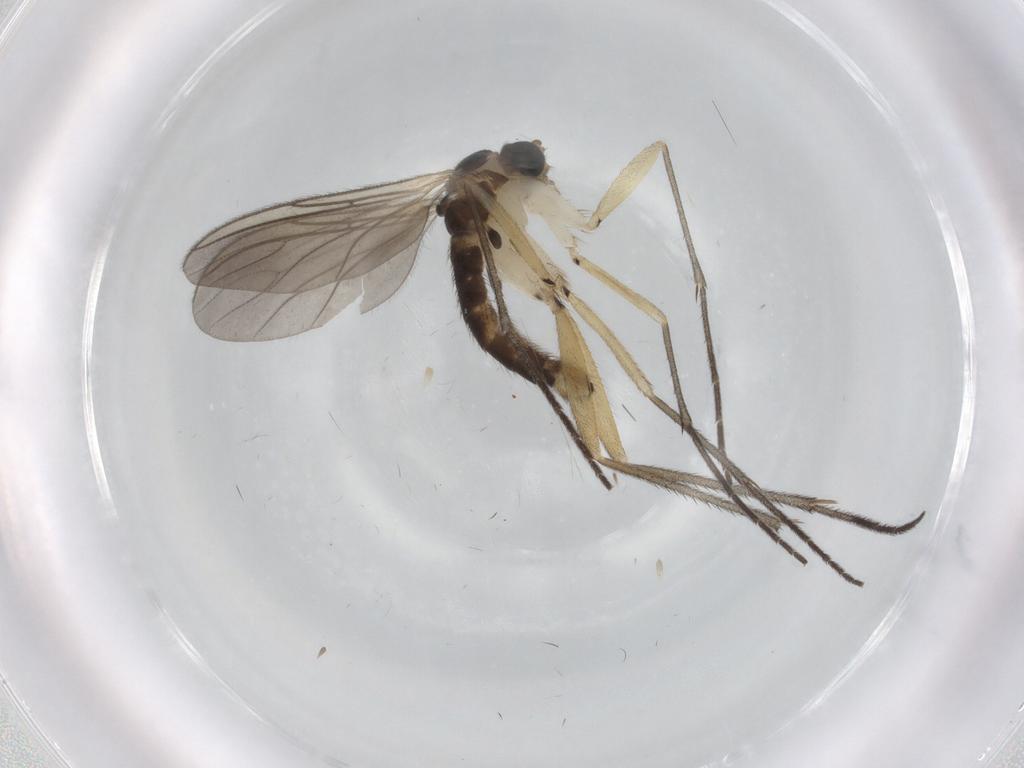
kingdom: Animalia
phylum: Arthropoda
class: Insecta
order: Diptera
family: Sciaridae
